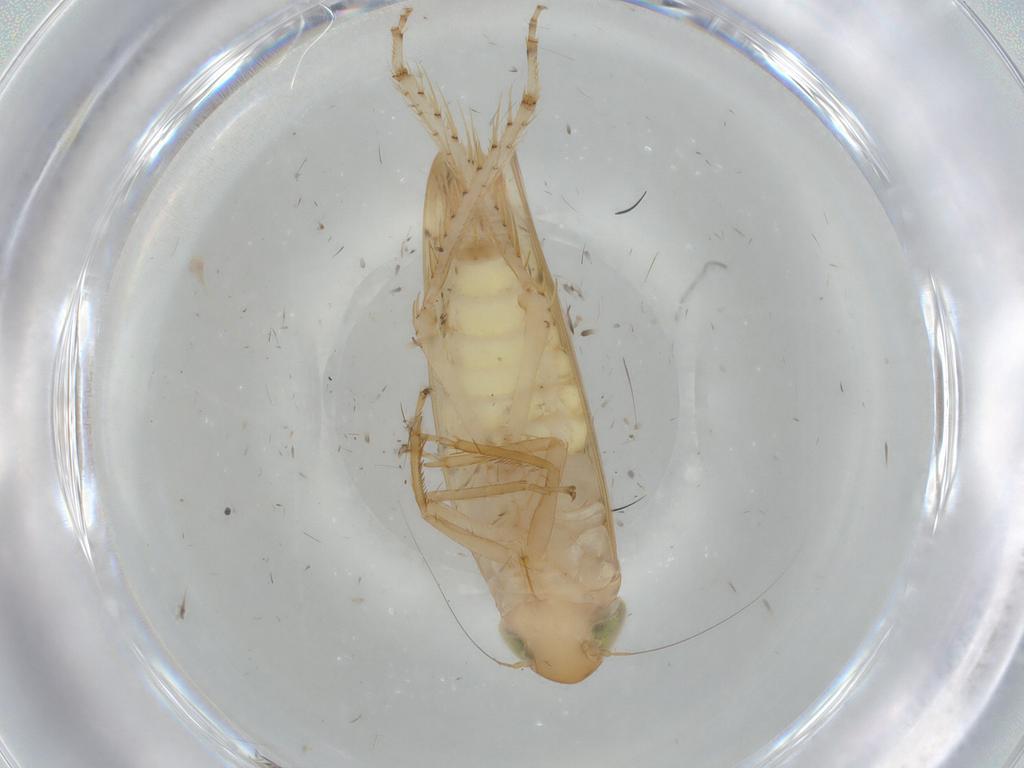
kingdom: Animalia
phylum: Arthropoda
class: Insecta
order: Hemiptera
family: Cicadellidae
